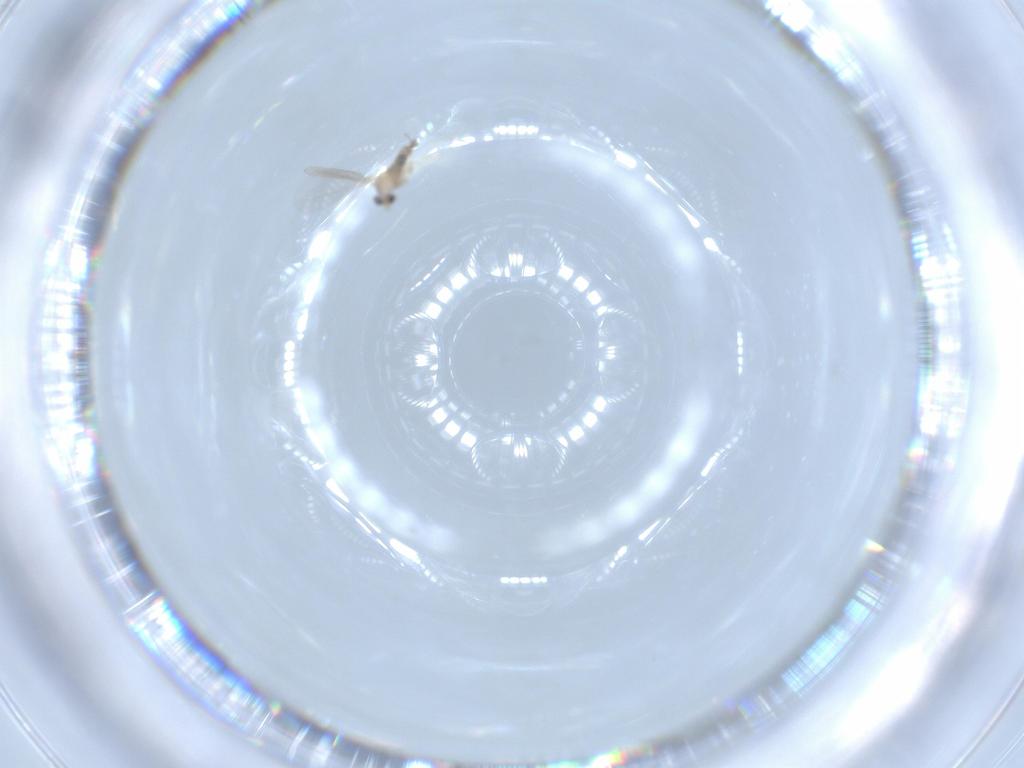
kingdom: Animalia
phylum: Arthropoda
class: Insecta
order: Diptera
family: Cecidomyiidae
